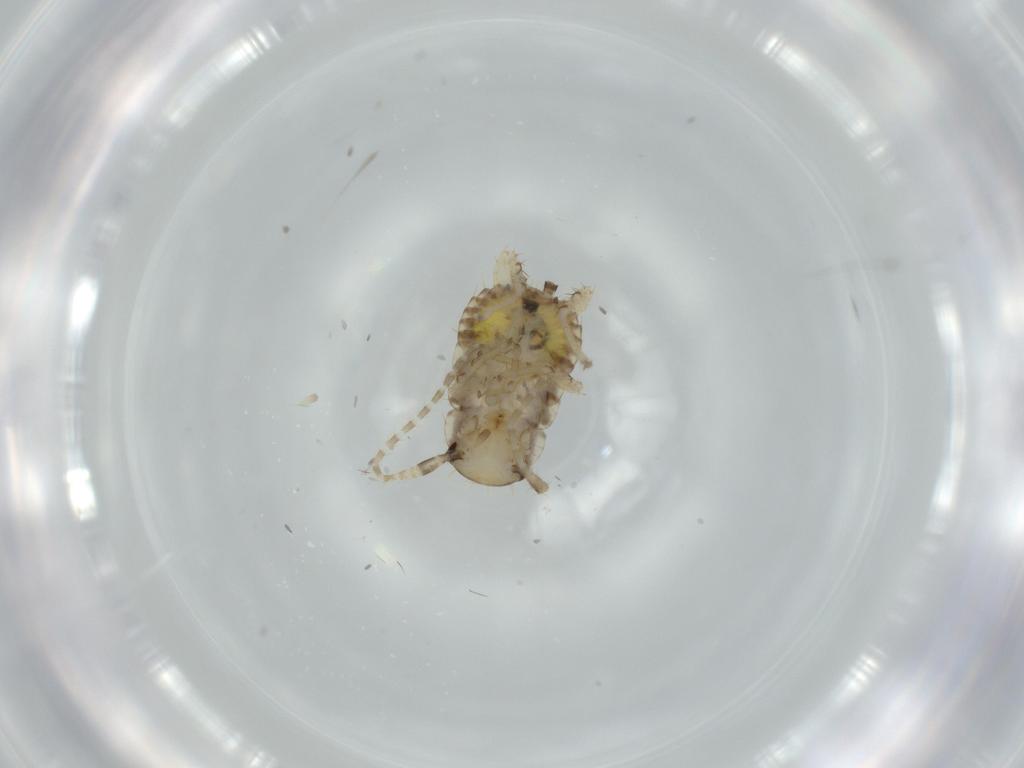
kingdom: Animalia
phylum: Arthropoda
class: Insecta
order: Blattodea
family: Ectobiidae
